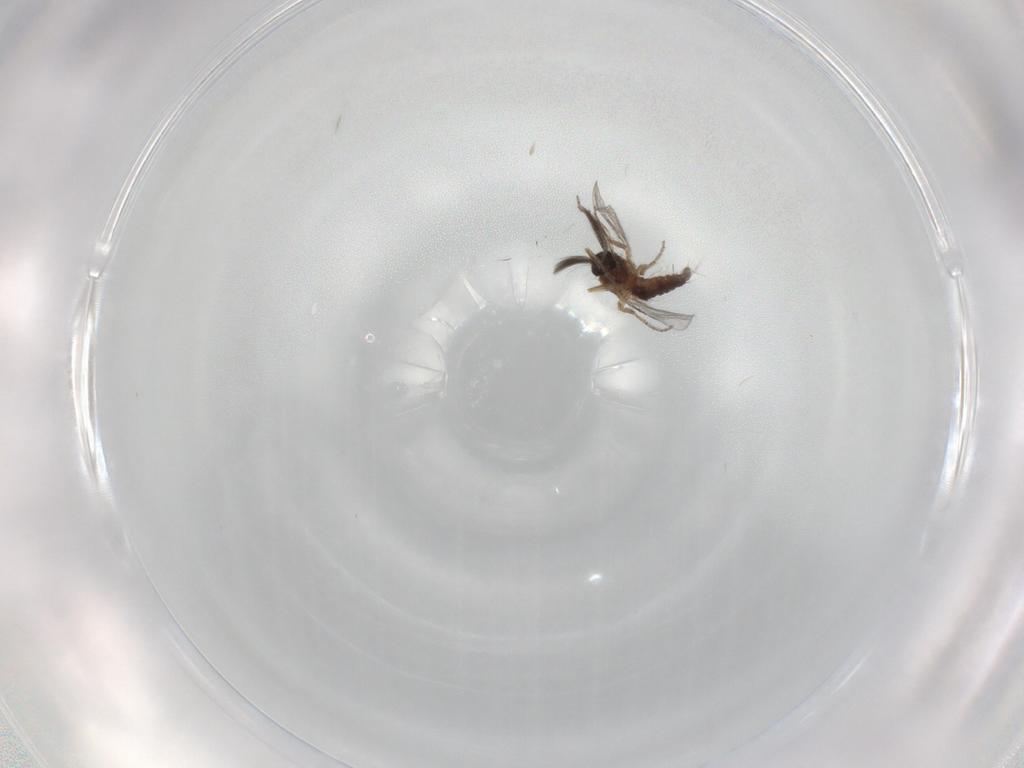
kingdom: Animalia
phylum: Arthropoda
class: Insecta
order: Diptera
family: Ceratopogonidae
